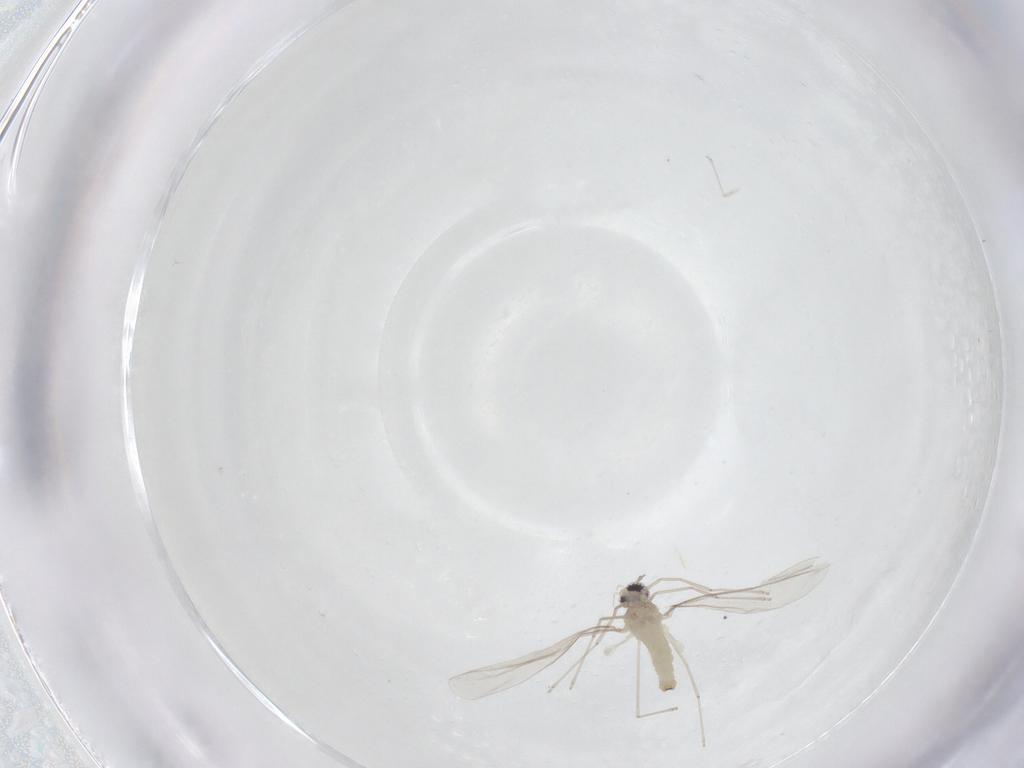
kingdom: Animalia
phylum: Arthropoda
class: Insecta
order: Diptera
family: Cecidomyiidae
